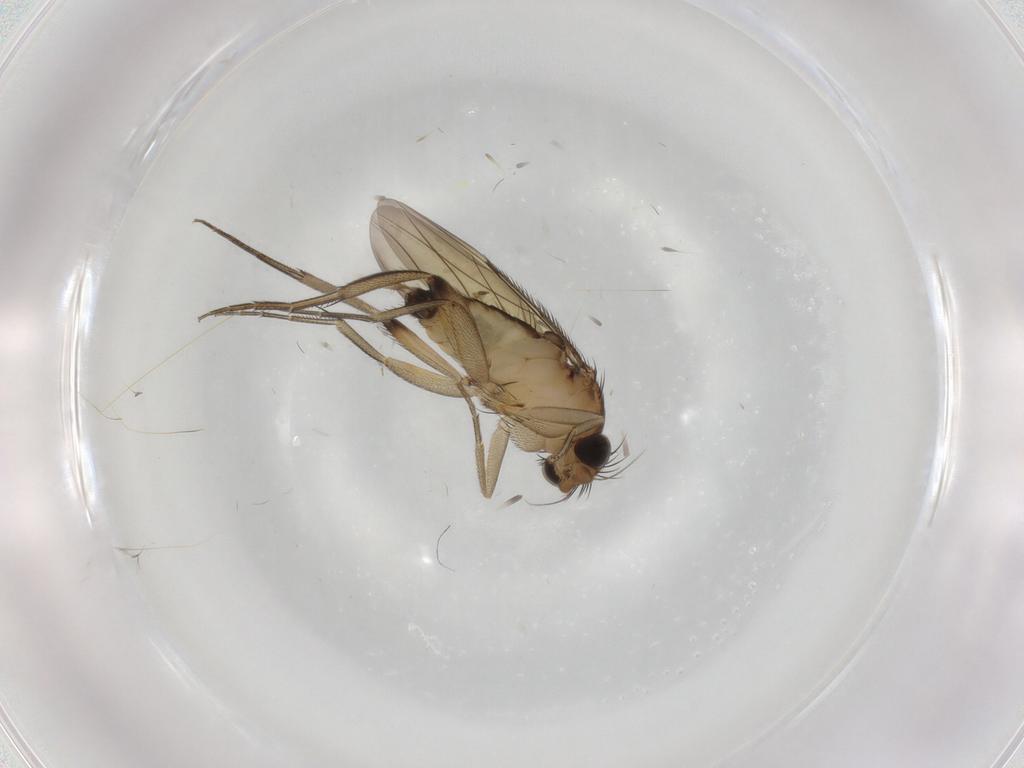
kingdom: Animalia
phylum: Arthropoda
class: Insecta
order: Diptera
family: Phoridae
